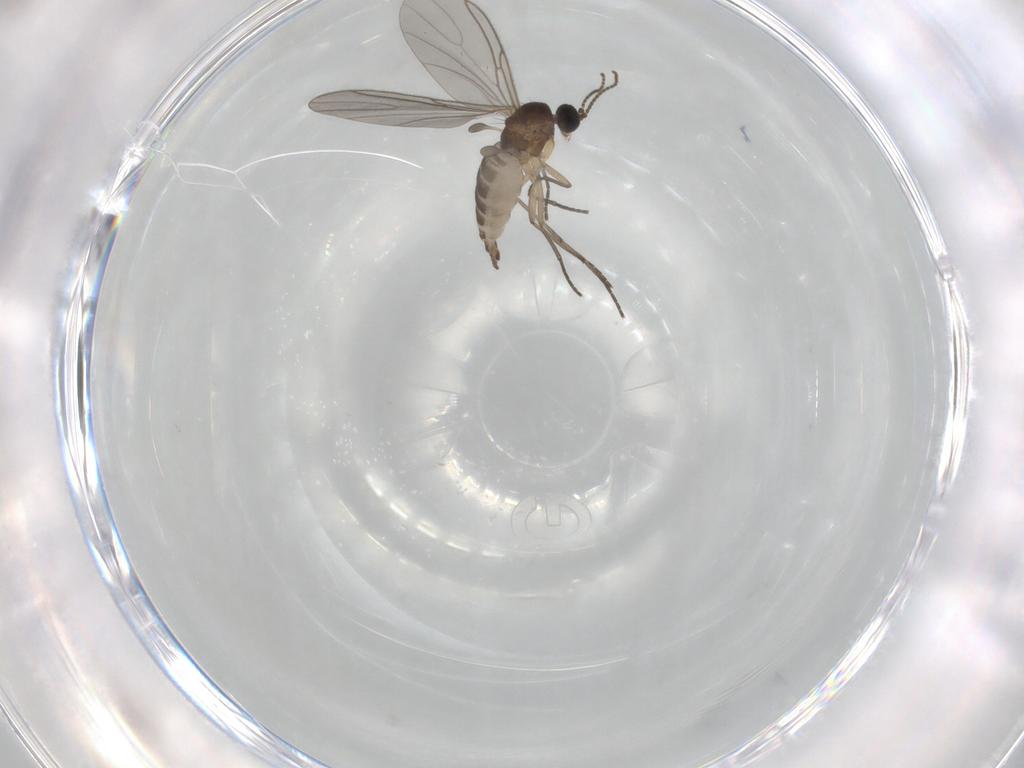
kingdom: Animalia
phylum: Arthropoda
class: Insecta
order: Diptera
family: Sciaridae
